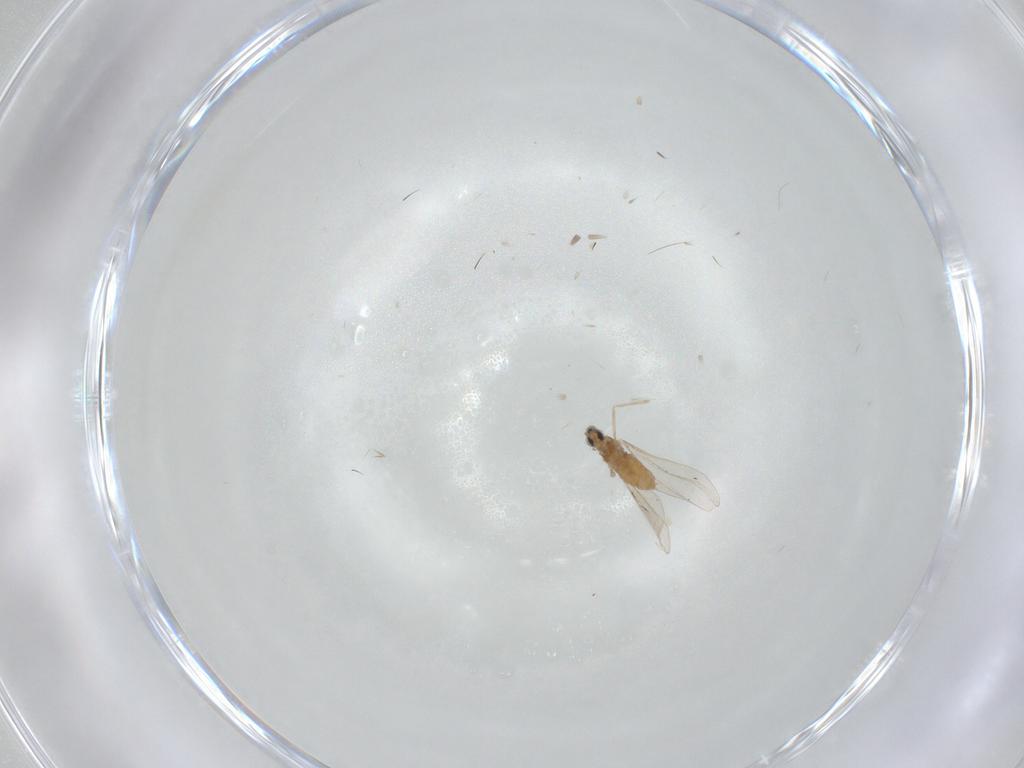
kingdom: Animalia
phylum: Arthropoda
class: Insecta
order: Diptera
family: Cecidomyiidae
